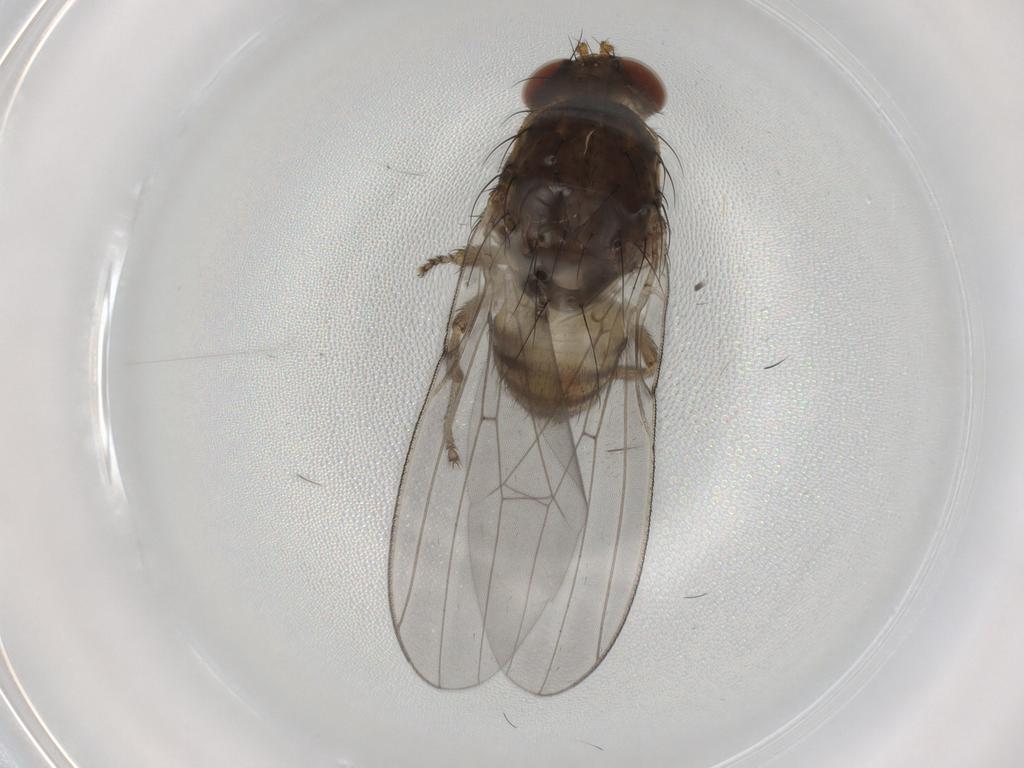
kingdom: Animalia
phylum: Arthropoda
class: Insecta
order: Diptera
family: Lauxaniidae
